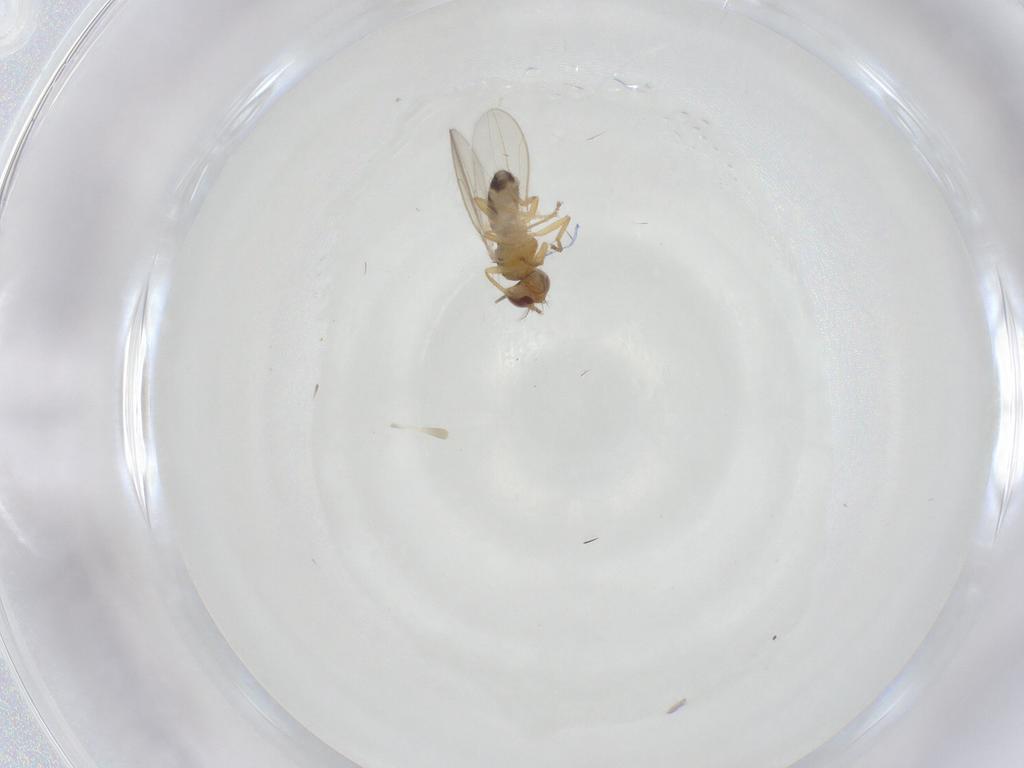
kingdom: Animalia
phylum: Arthropoda
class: Insecta
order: Diptera
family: Periscelididae
